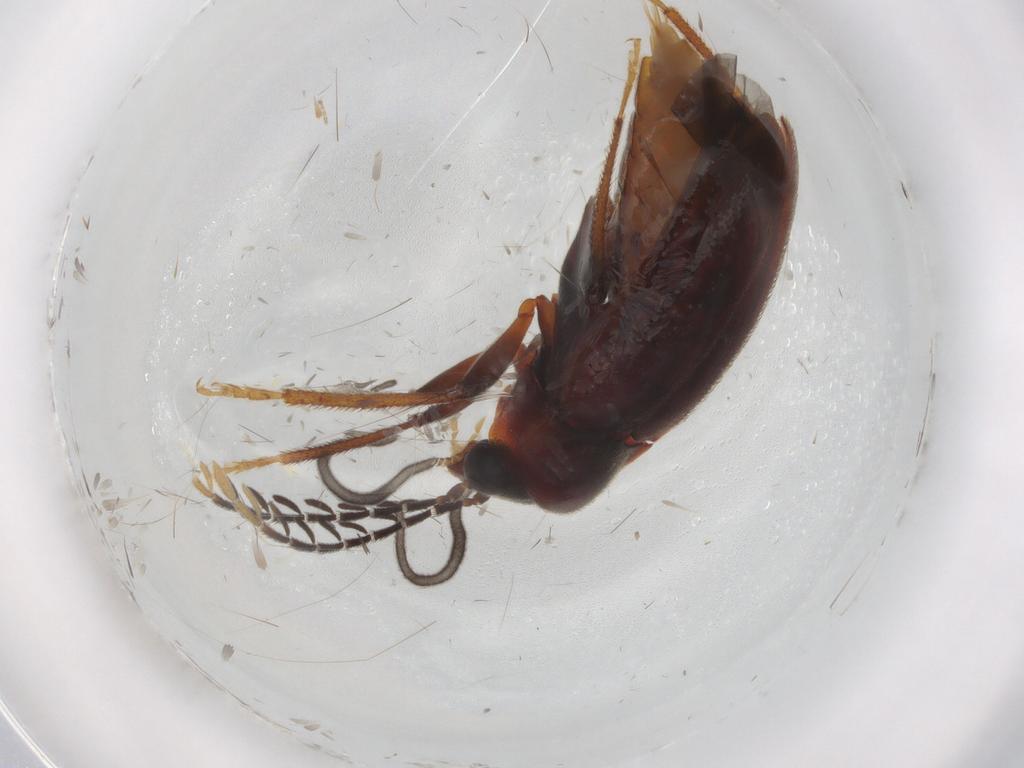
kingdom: Animalia
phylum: Arthropoda
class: Insecta
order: Coleoptera
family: Ptilodactylidae
